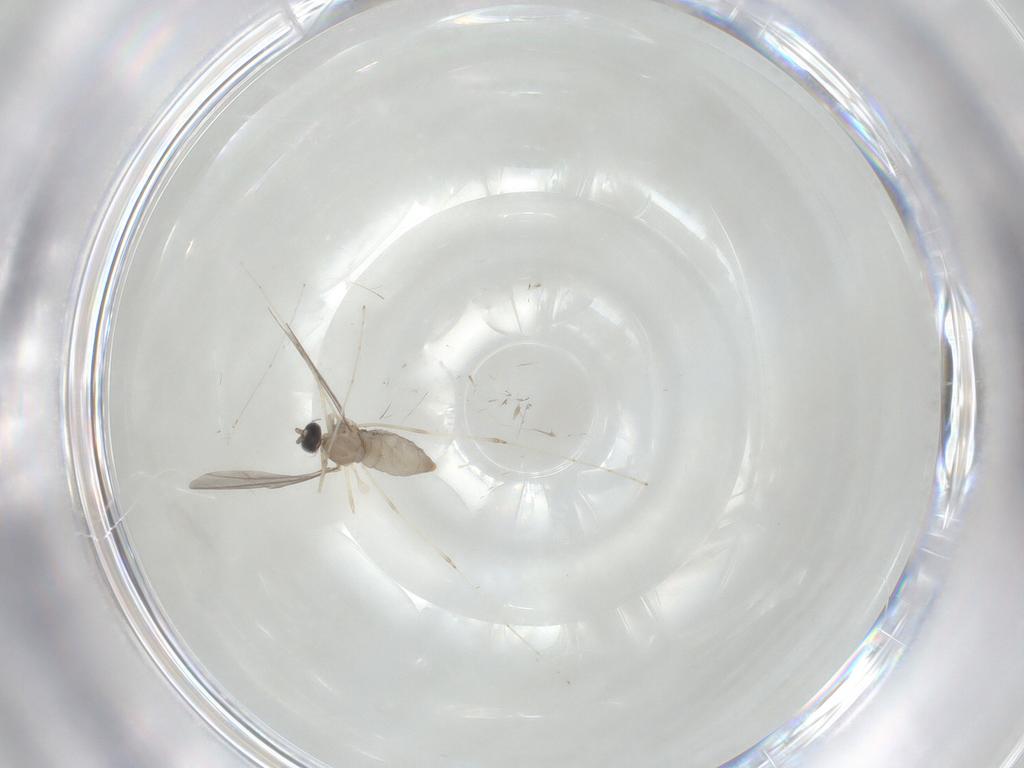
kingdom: Animalia
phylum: Arthropoda
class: Insecta
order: Diptera
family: Cecidomyiidae
